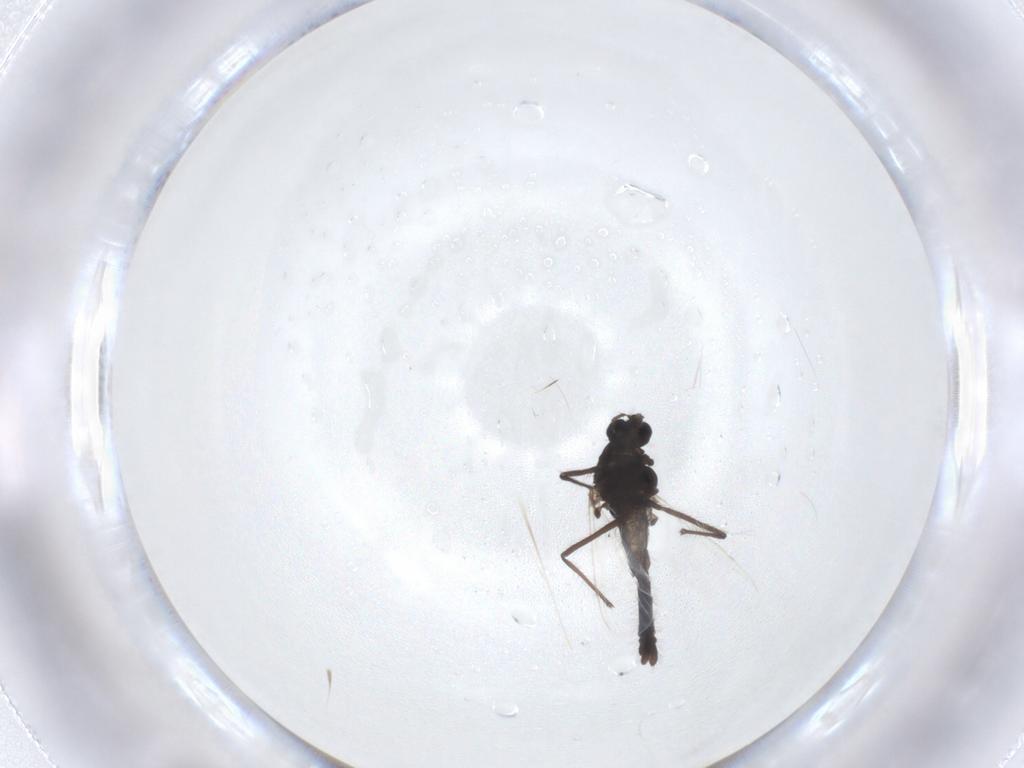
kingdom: Animalia
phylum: Arthropoda
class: Insecta
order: Diptera
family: Chironomidae
